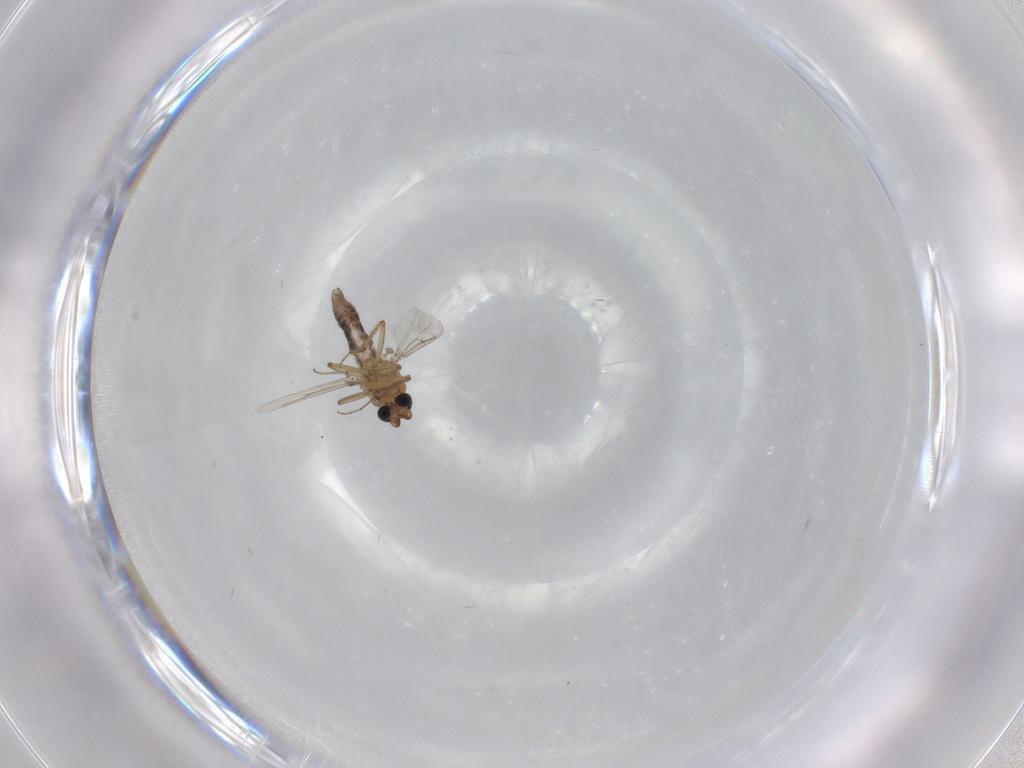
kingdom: Animalia
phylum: Arthropoda
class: Insecta
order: Diptera
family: Ceratopogonidae
